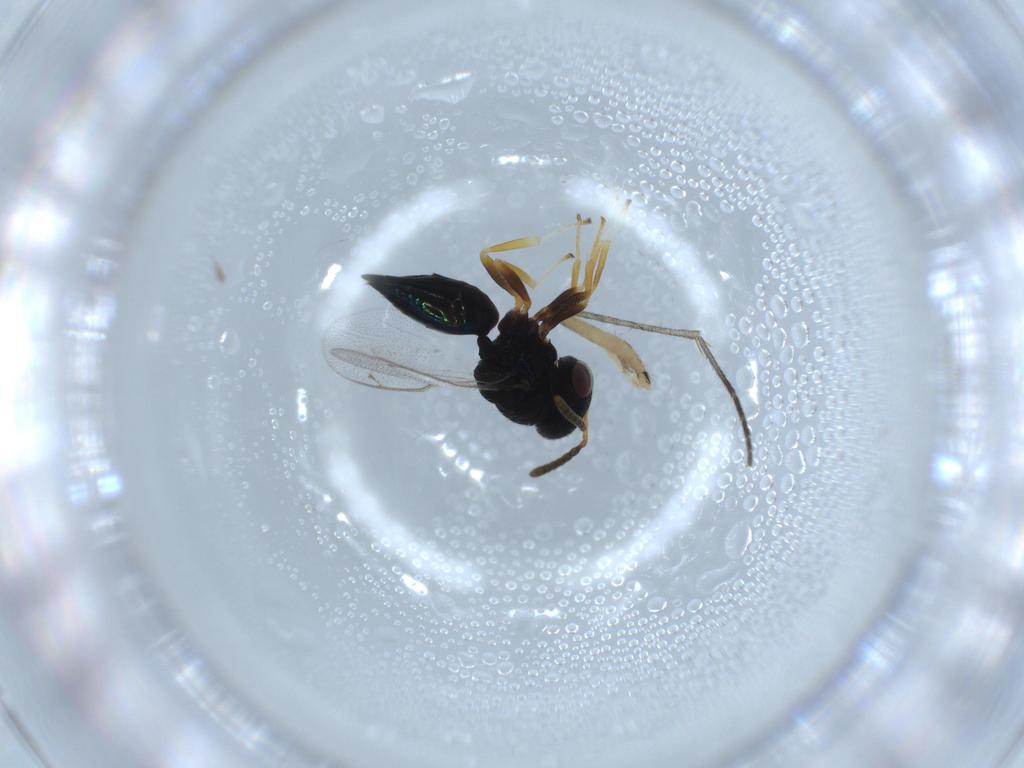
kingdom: Animalia
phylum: Arthropoda
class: Insecta
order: Hymenoptera
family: Pteromalidae
